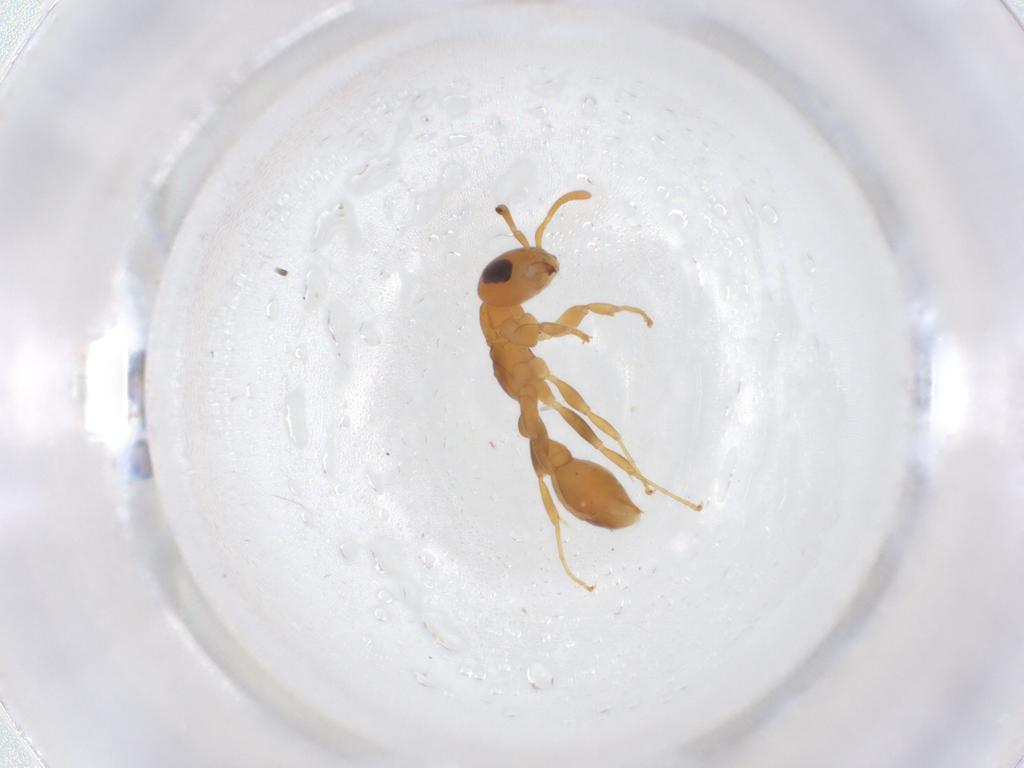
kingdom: Animalia
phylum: Arthropoda
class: Insecta
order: Hymenoptera
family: Formicidae
